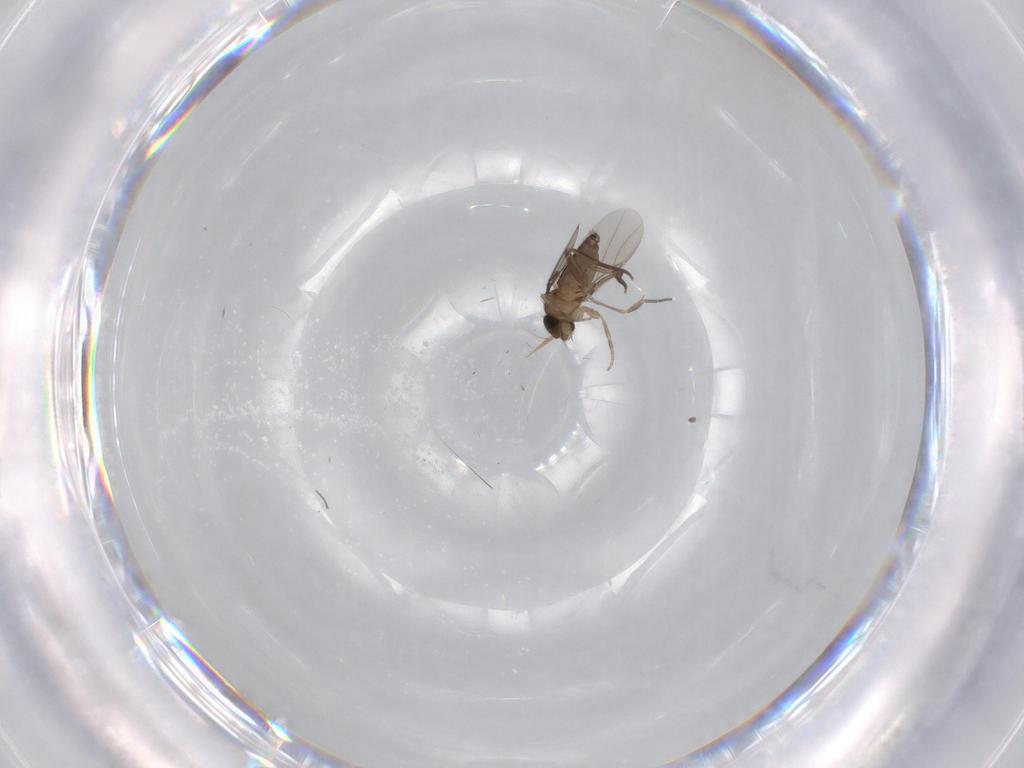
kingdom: Animalia
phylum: Arthropoda
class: Insecta
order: Diptera
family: Phoridae
